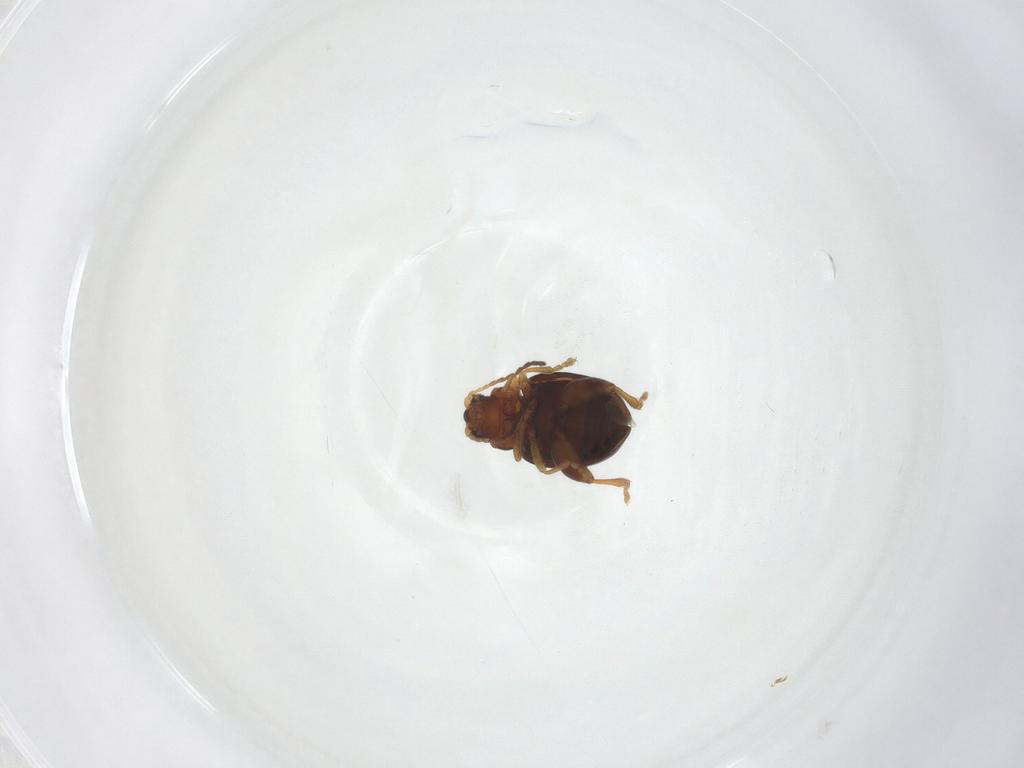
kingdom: Animalia
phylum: Arthropoda
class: Insecta
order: Coleoptera
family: Chrysomelidae
